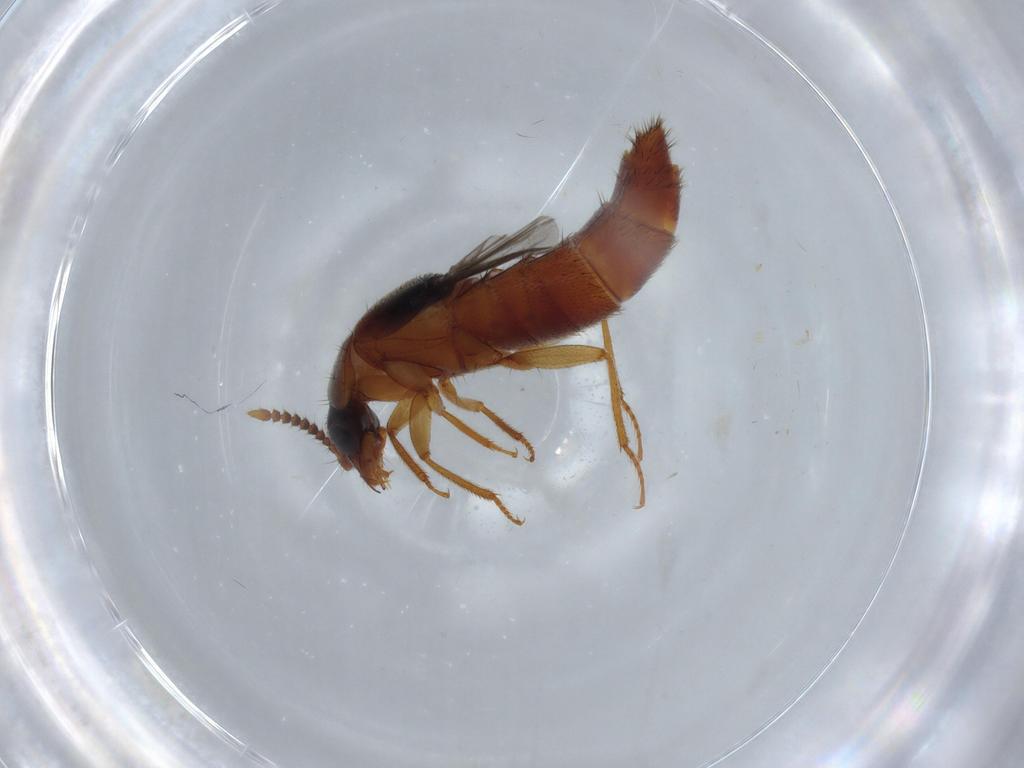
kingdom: Animalia
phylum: Arthropoda
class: Insecta
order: Coleoptera
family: Staphylinidae
